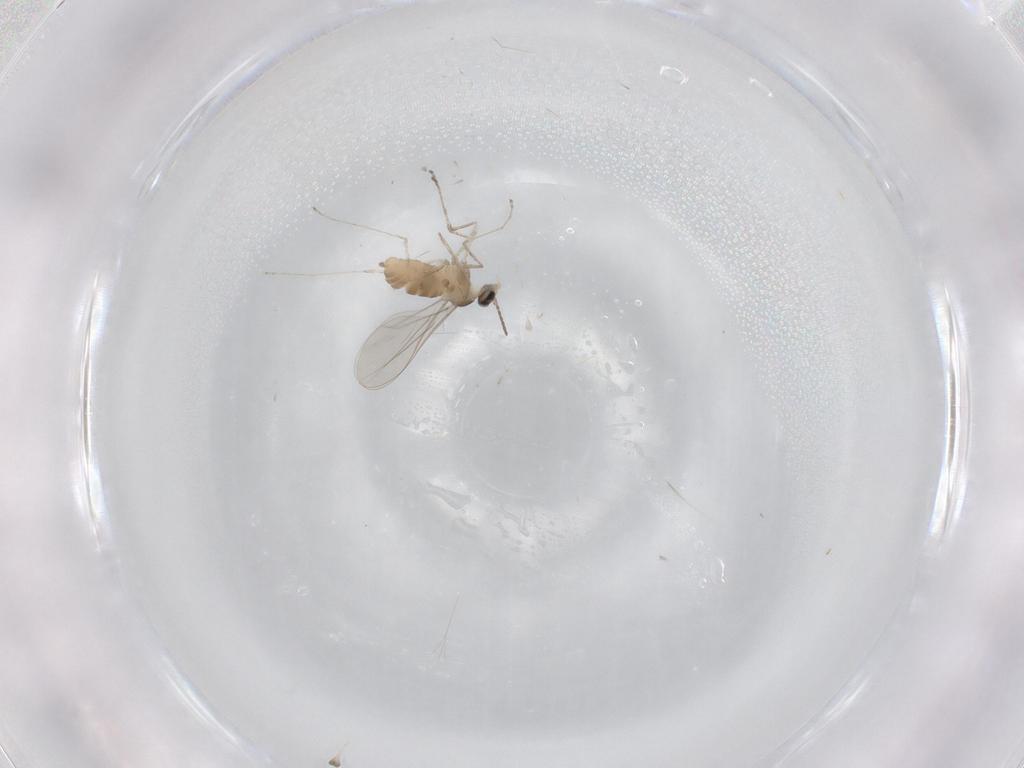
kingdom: Animalia
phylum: Arthropoda
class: Insecta
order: Diptera
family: Cecidomyiidae
